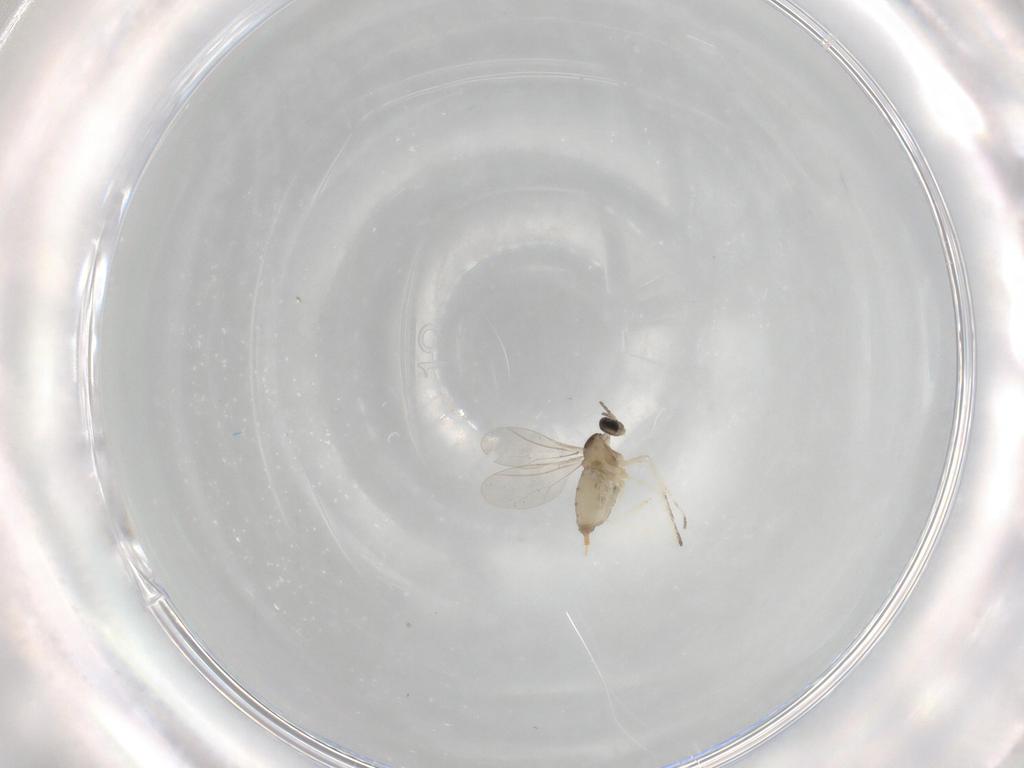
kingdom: Animalia
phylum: Arthropoda
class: Insecta
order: Diptera
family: Cecidomyiidae
